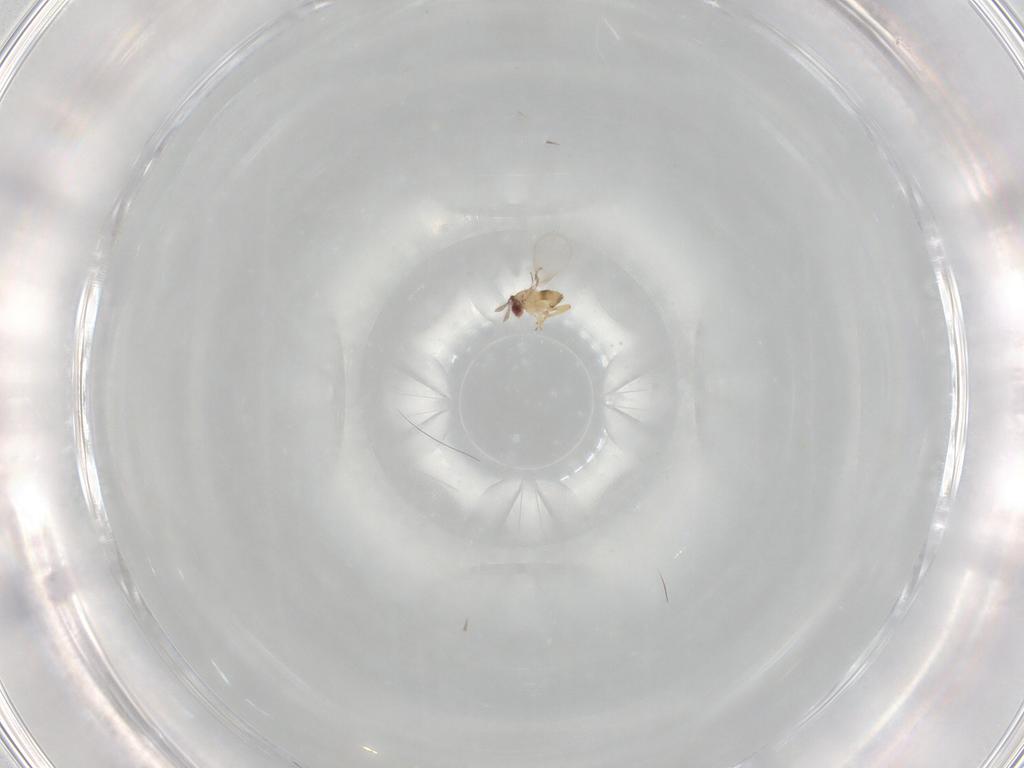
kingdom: Animalia
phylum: Arthropoda
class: Insecta
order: Hymenoptera
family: Trichogrammatidae
